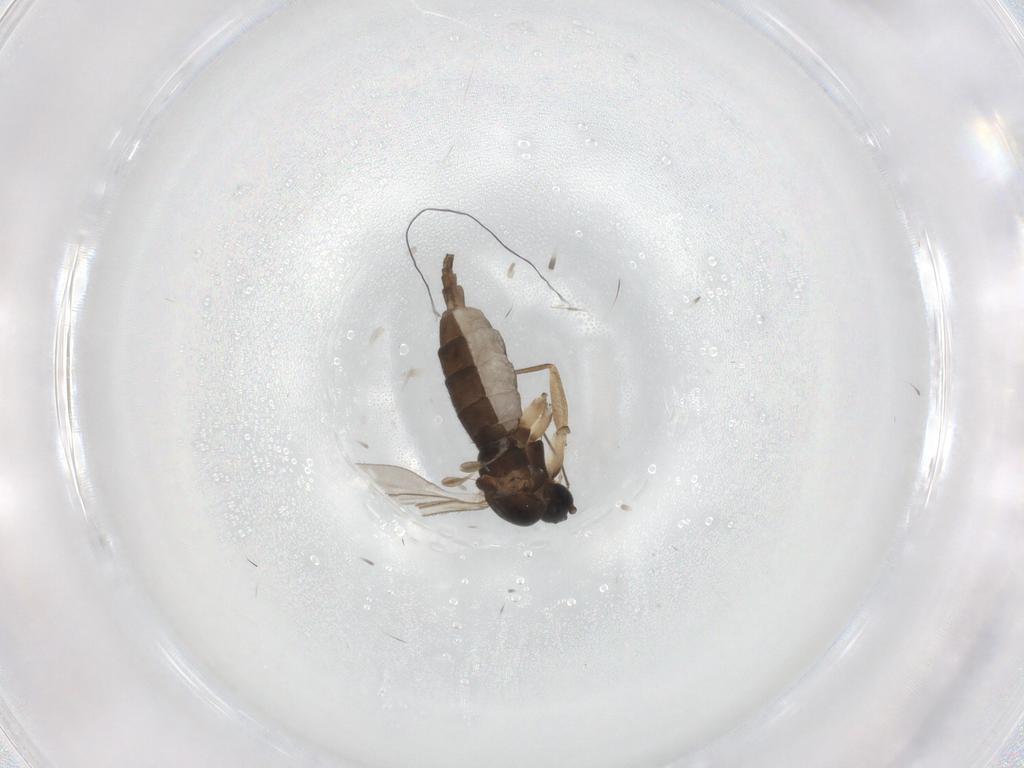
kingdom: Animalia
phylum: Arthropoda
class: Insecta
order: Diptera
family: Sciaridae
